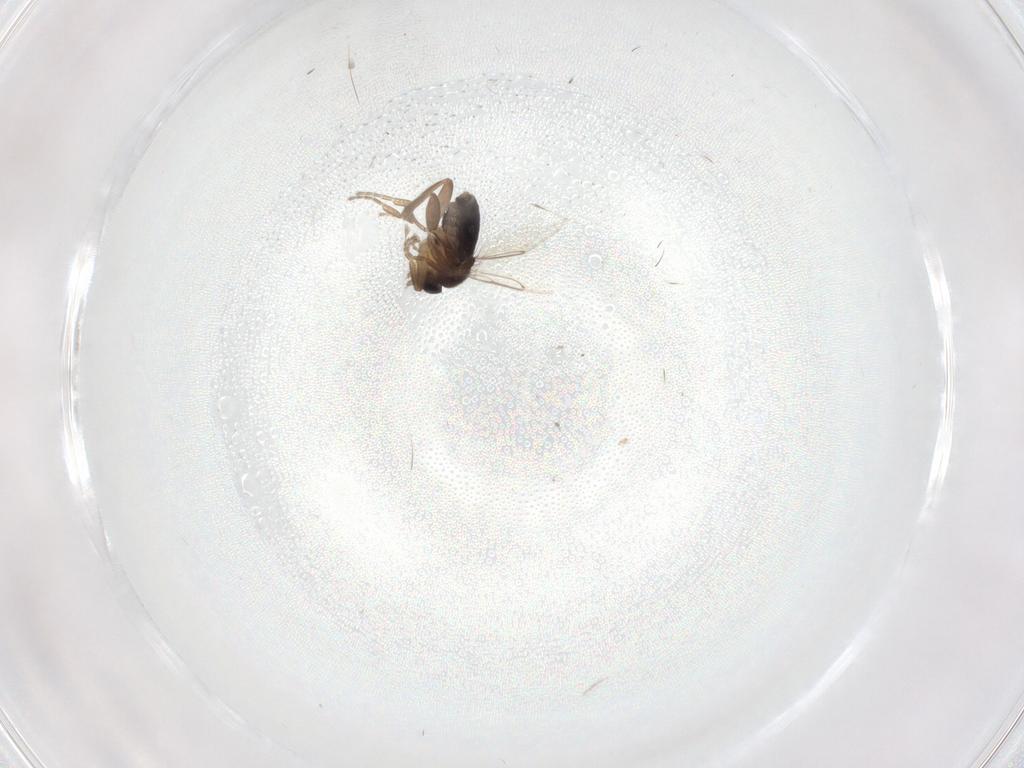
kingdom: Animalia
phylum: Arthropoda
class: Insecta
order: Diptera
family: Phoridae
